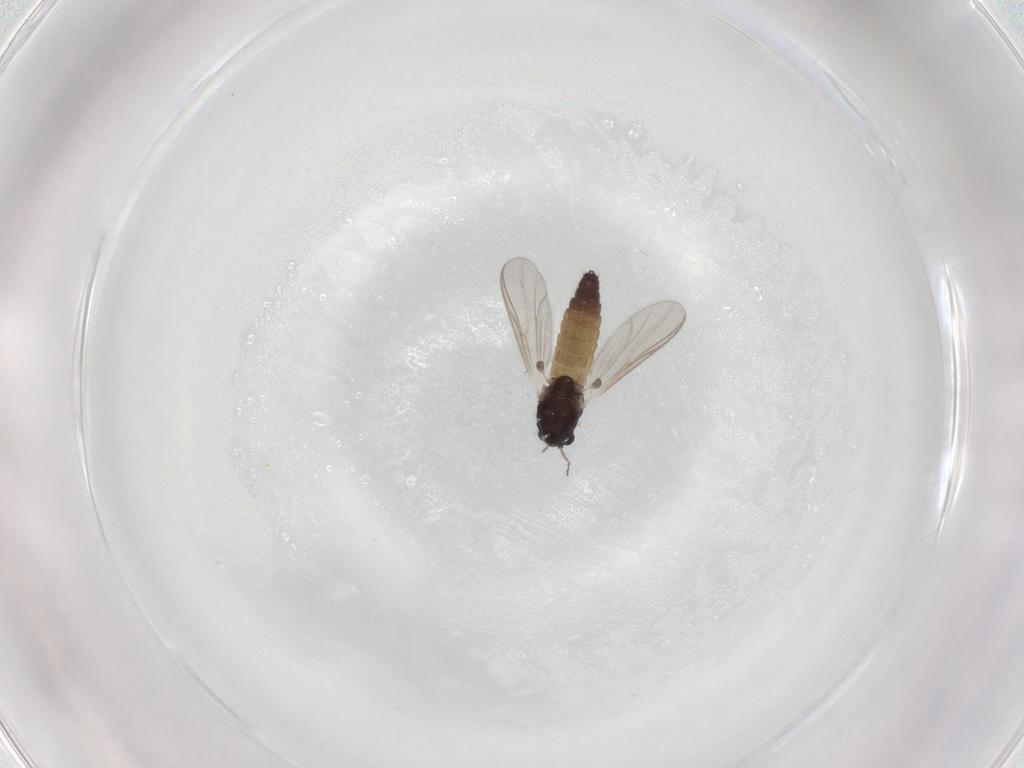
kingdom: Animalia
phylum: Arthropoda
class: Insecta
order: Diptera
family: Chironomidae
